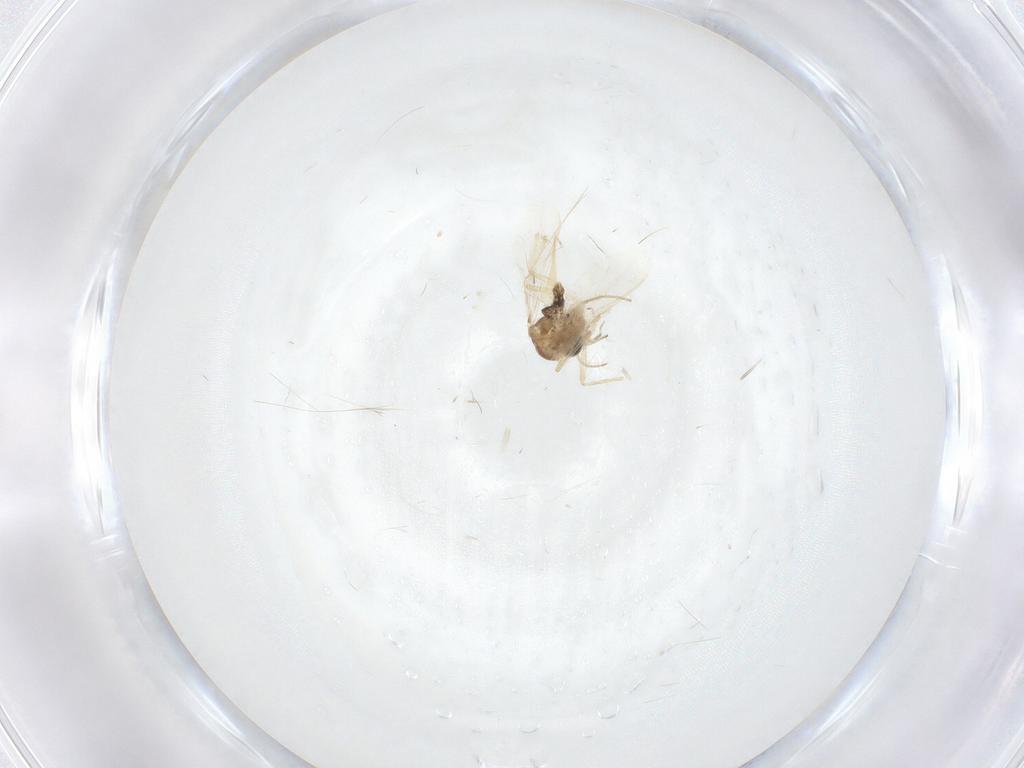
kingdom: Animalia
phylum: Arthropoda
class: Insecta
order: Diptera
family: Chironomidae
